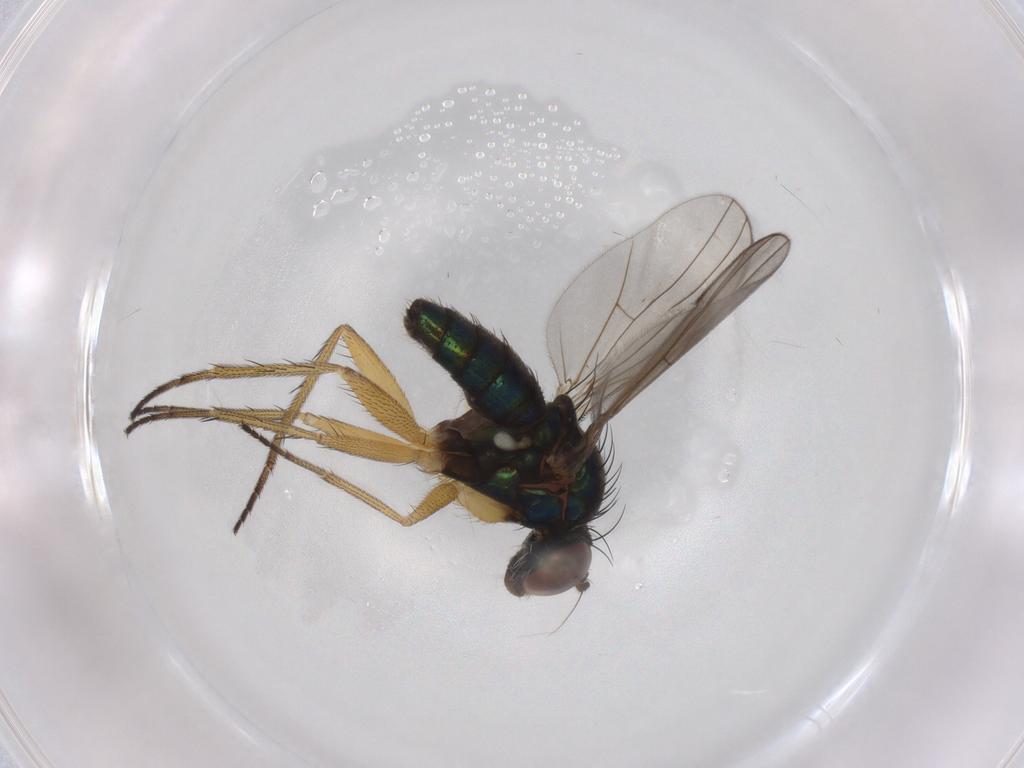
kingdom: Animalia
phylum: Arthropoda
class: Insecta
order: Diptera
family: Dolichopodidae
